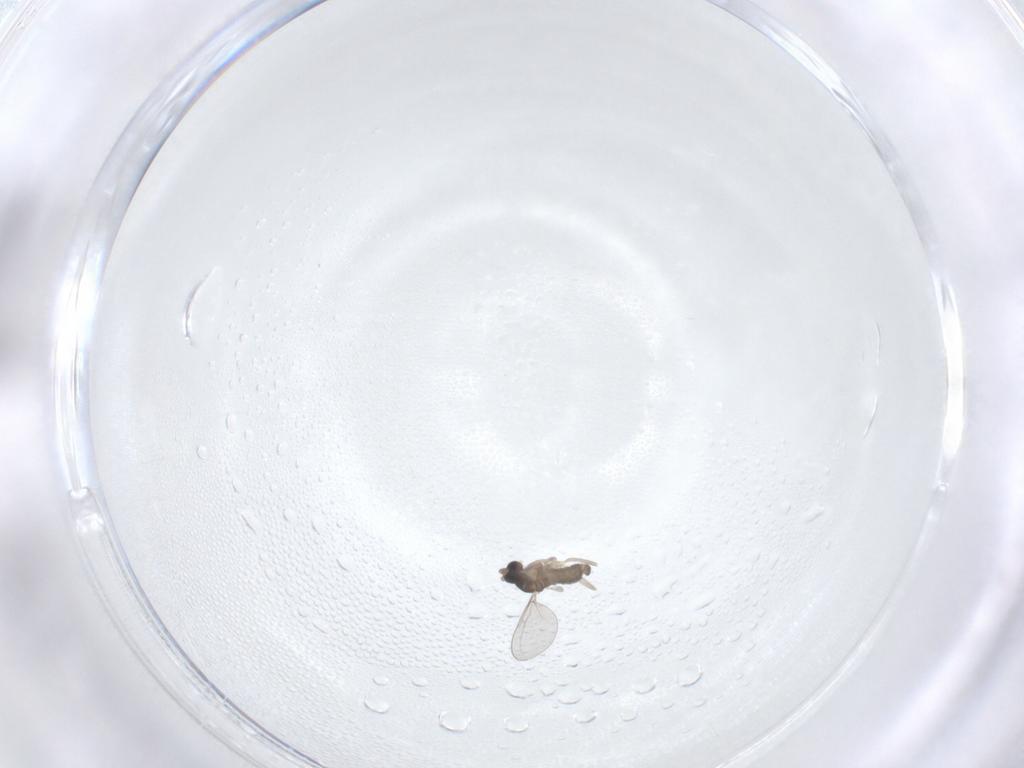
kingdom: Animalia
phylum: Arthropoda
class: Insecta
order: Diptera
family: Cecidomyiidae
